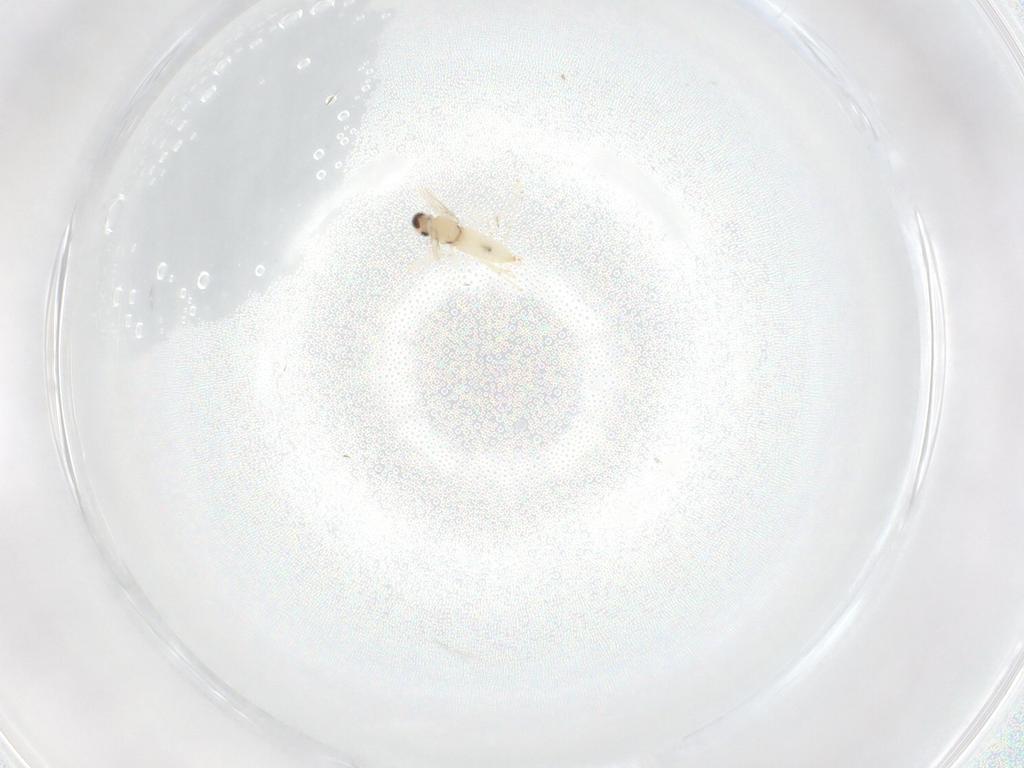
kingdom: Animalia
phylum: Arthropoda
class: Insecta
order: Diptera
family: Cecidomyiidae
